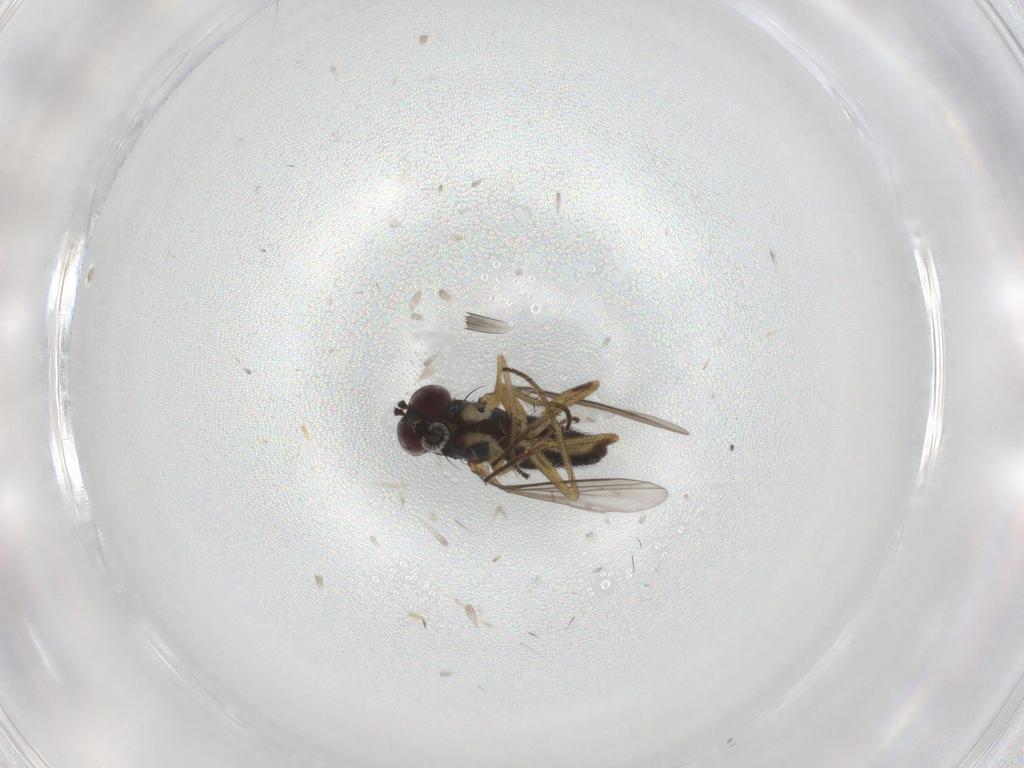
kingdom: Animalia
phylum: Arthropoda
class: Insecta
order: Diptera
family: Dolichopodidae
